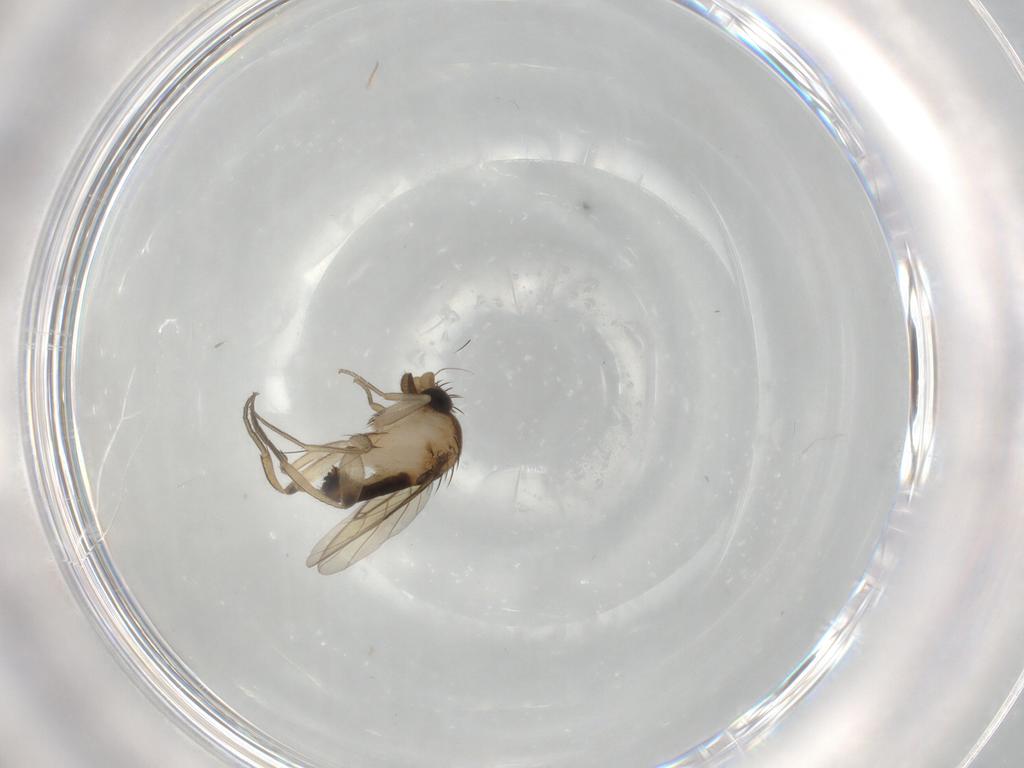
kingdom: Animalia
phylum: Arthropoda
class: Insecta
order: Diptera
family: Phoridae
